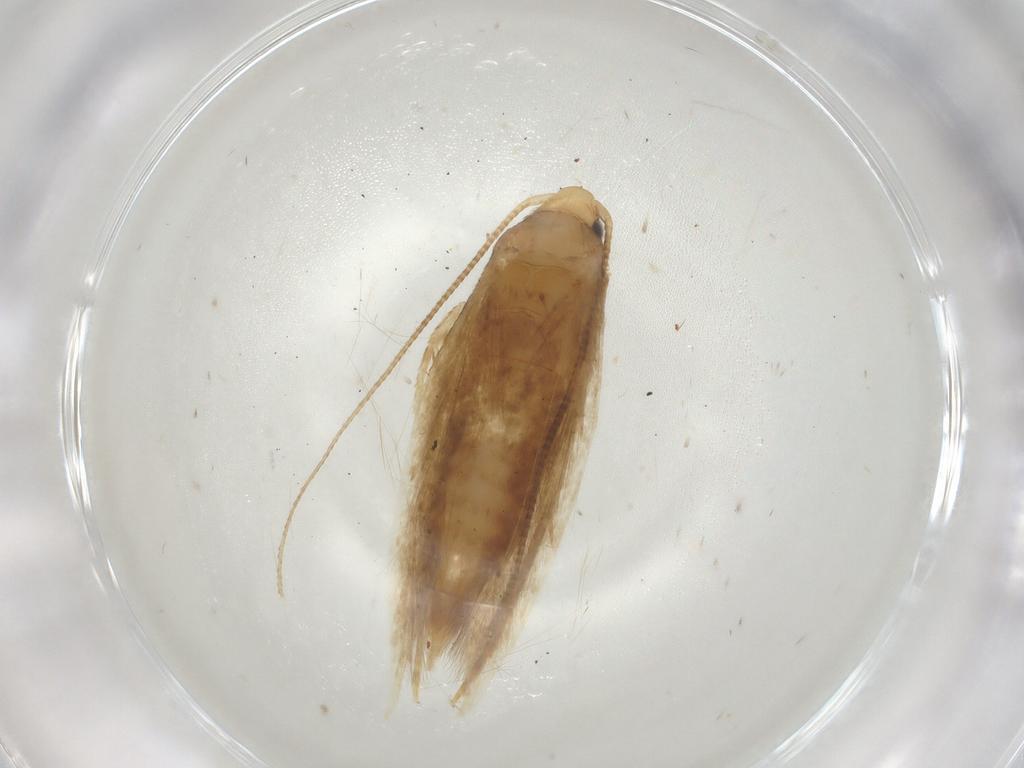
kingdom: Animalia
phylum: Arthropoda
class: Insecta
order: Lepidoptera
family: Tineidae
